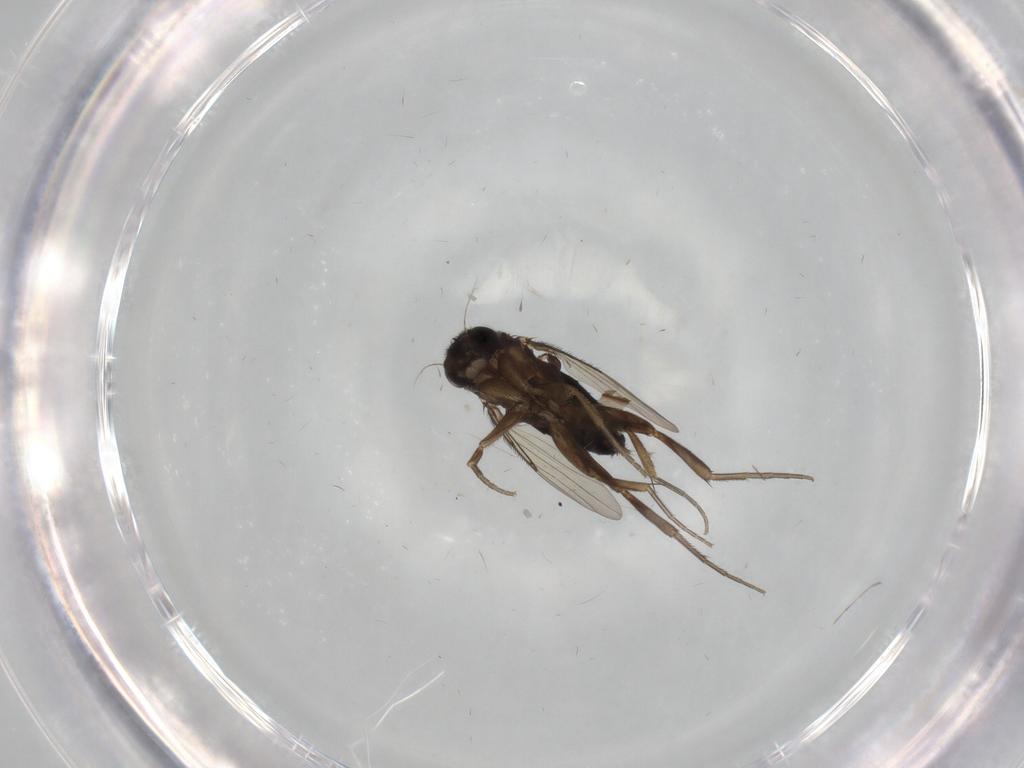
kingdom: Animalia
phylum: Arthropoda
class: Insecta
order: Diptera
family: Phoridae
